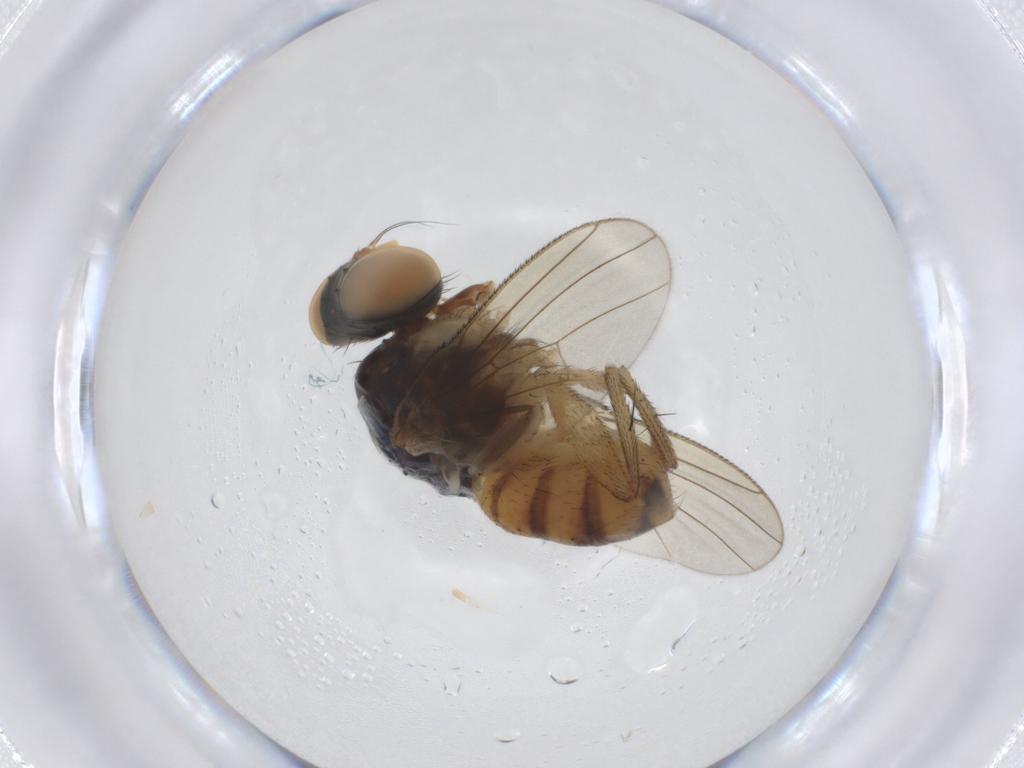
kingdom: Animalia
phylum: Arthropoda
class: Insecta
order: Diptera
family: Muscidae
